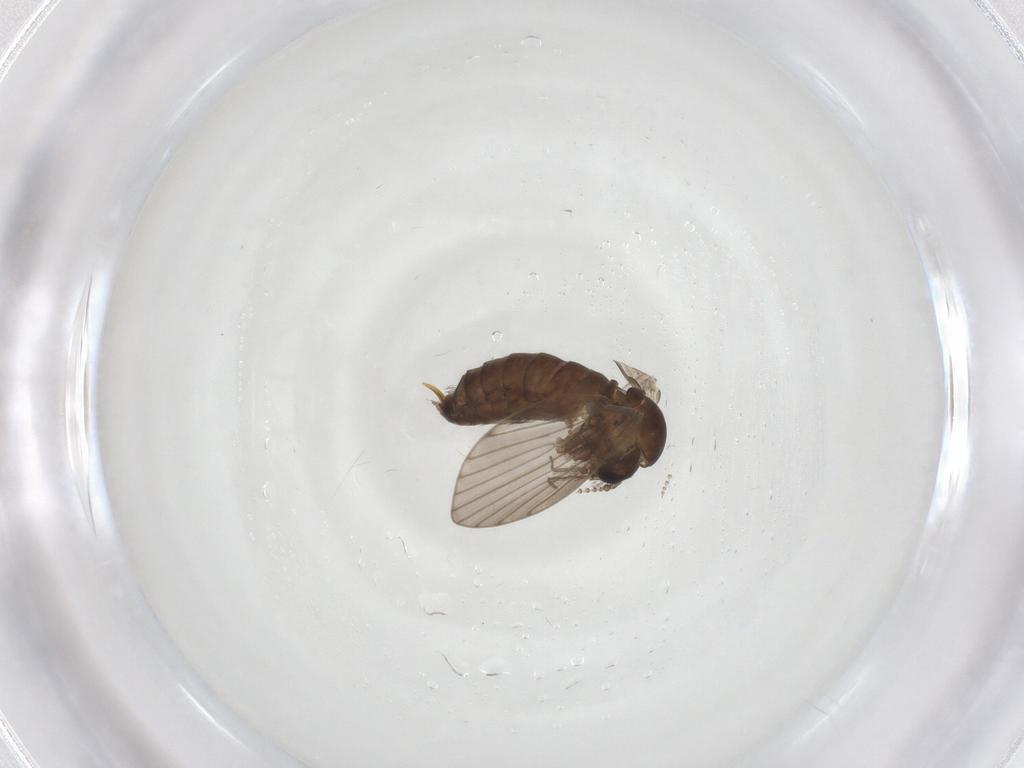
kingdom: Animalia
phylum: Arthropoda
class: Insecta
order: Diptera
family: Psychodidae
